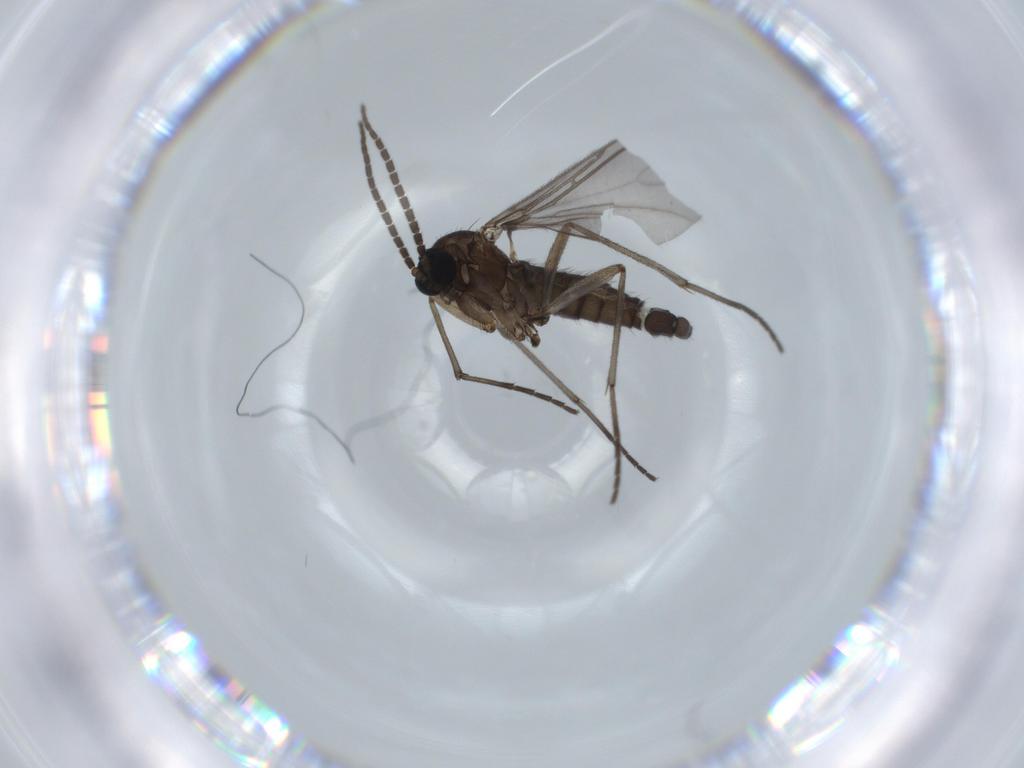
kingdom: Animalia
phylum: Arthropoda
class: Insecta
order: Diptera
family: Sciaridae
